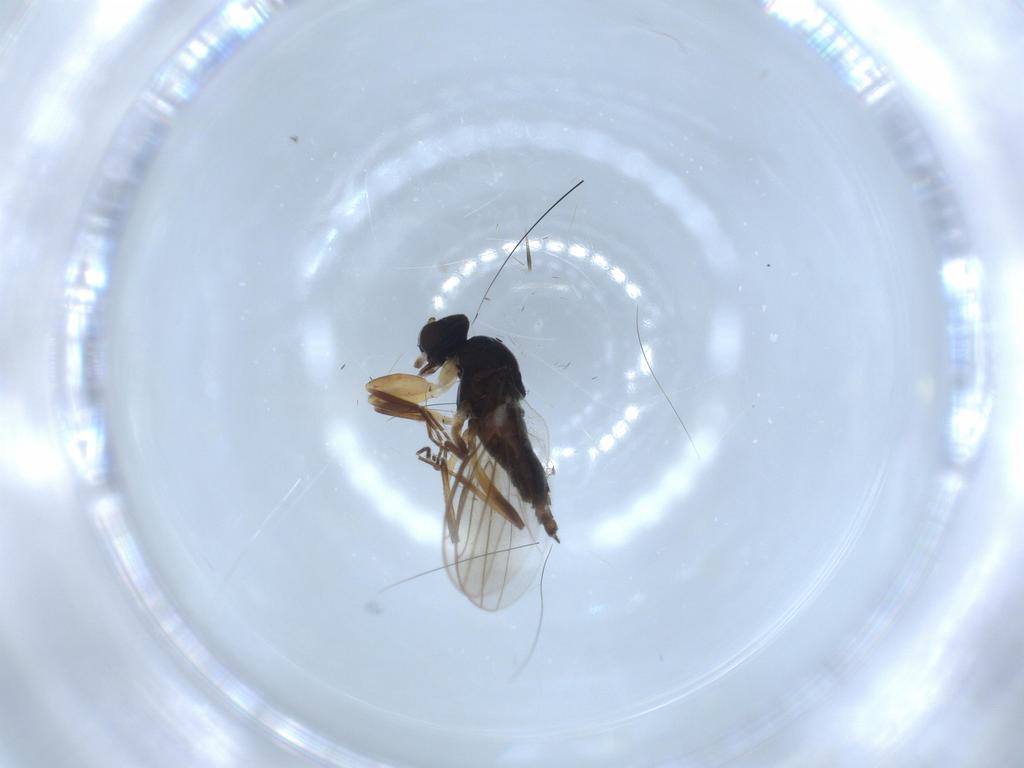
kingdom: Animalia
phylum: Arthropoda
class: Insecta
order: Diptera
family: Hybotidae
